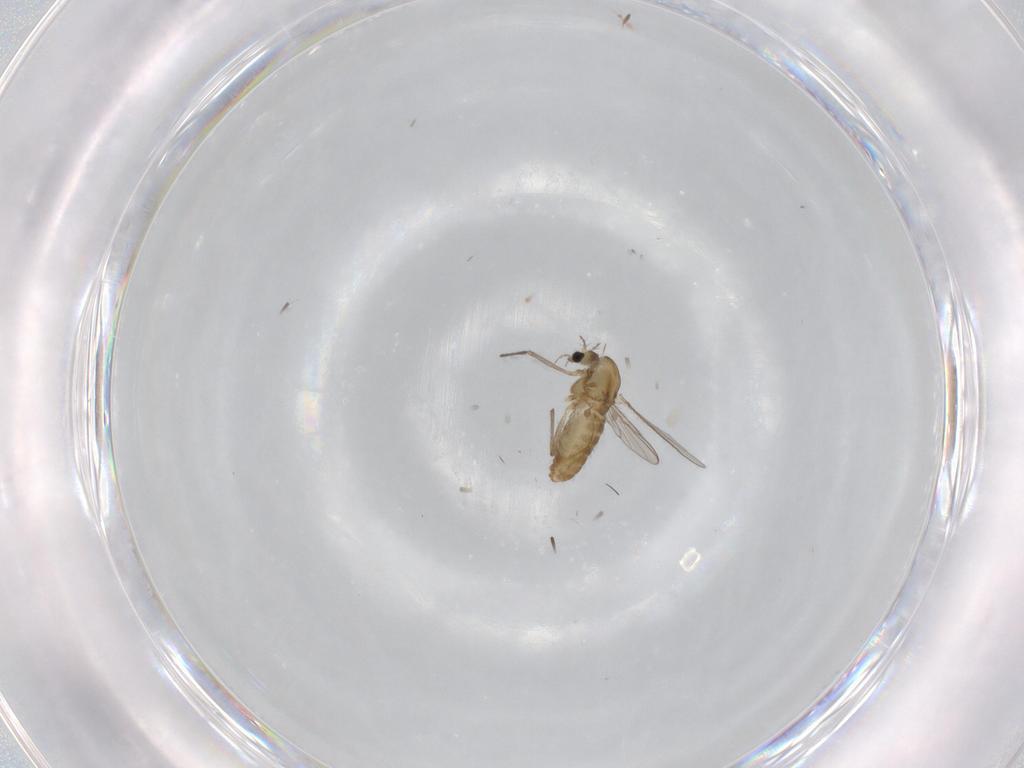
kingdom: Animalia
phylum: Arthropoda
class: Insecta
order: Diptera
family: Chironomidae
